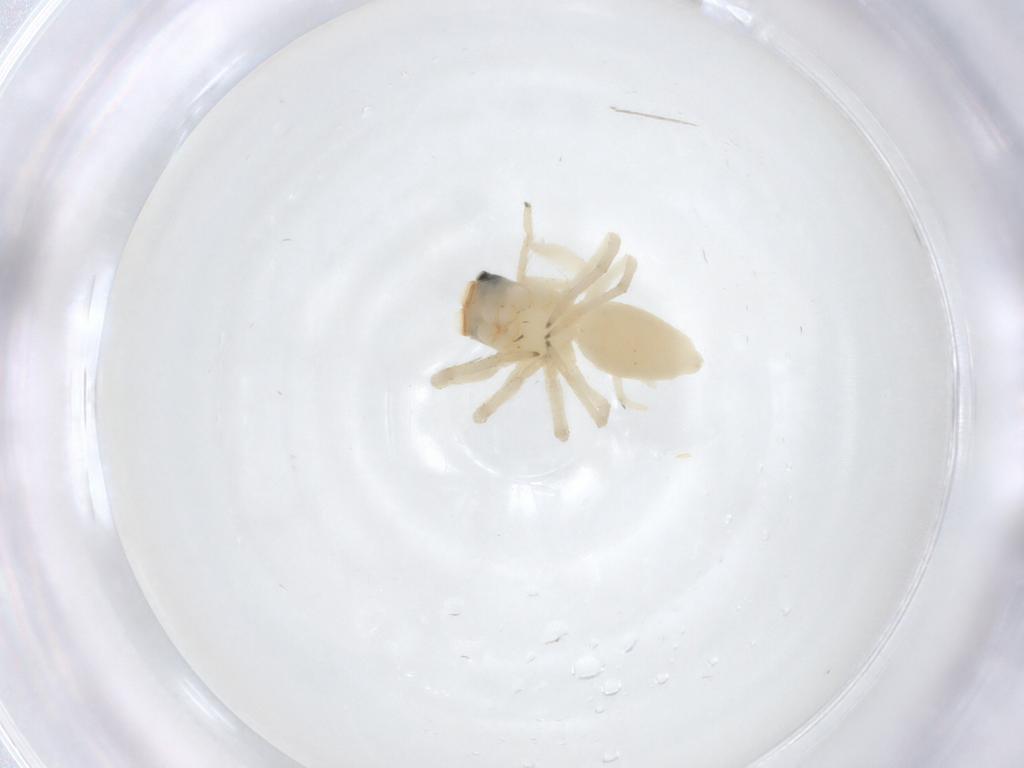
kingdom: Animalia
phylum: Arthropoda
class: Arachnida
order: Araneae
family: Salticidae
